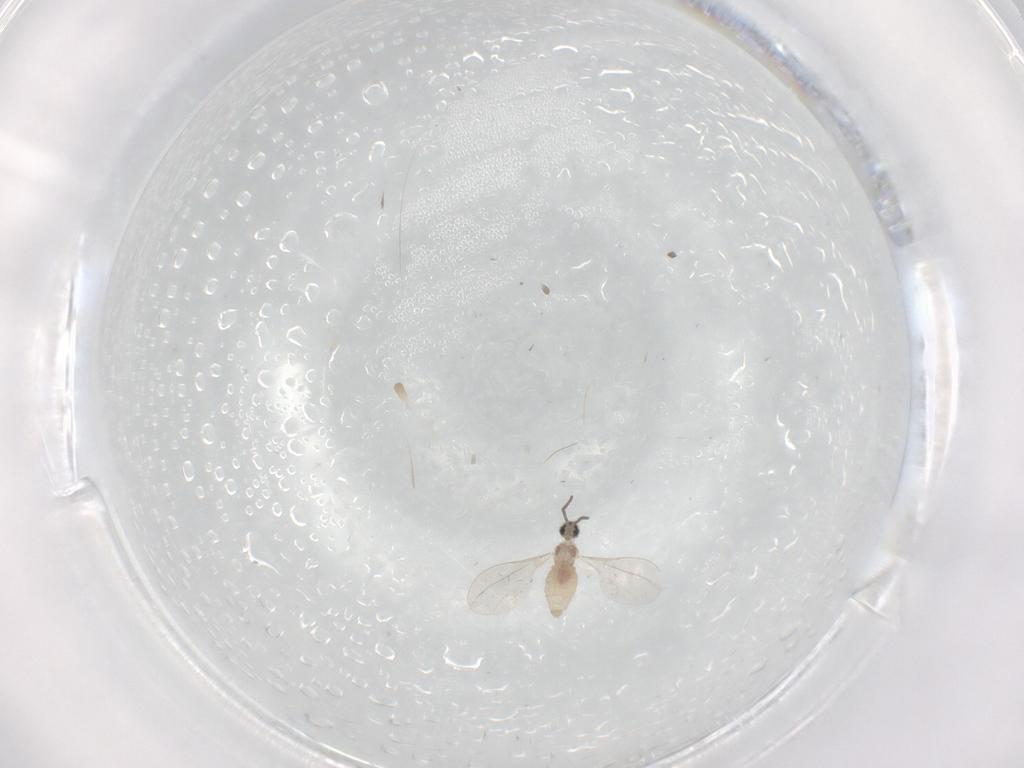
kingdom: Animalia
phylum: Arthropoda
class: Insecta
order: Diptera
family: Cecidomyiidae
